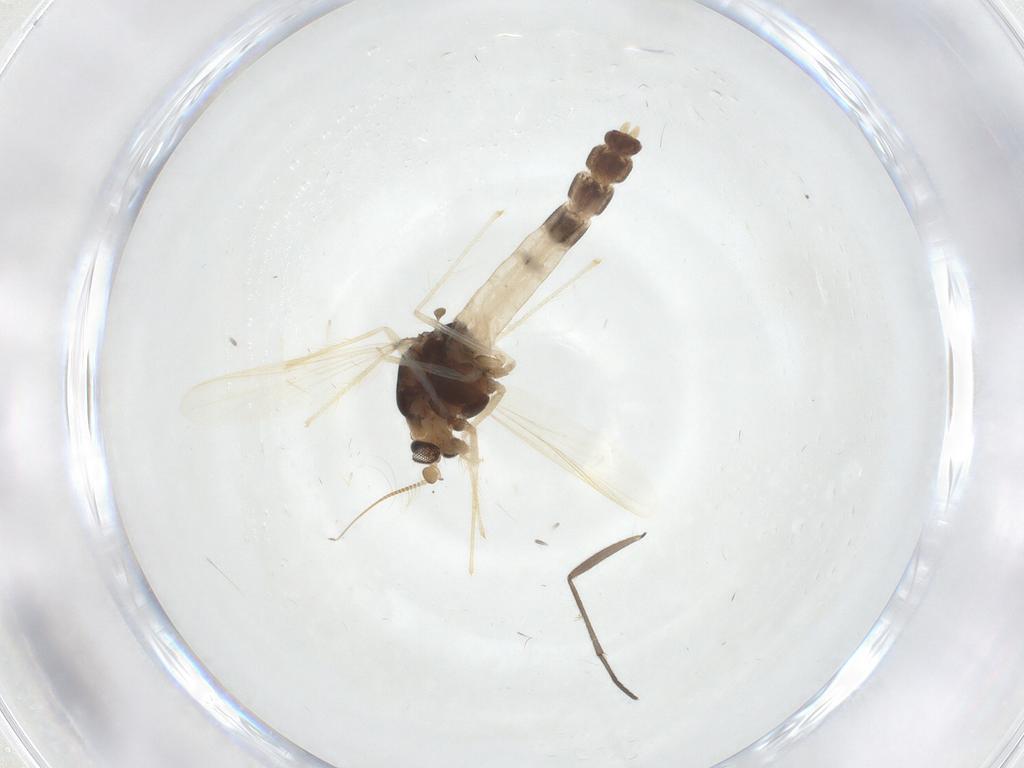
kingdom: Animalia
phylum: Arthropoda
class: Insecta
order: Diptera
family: Chironomidae
